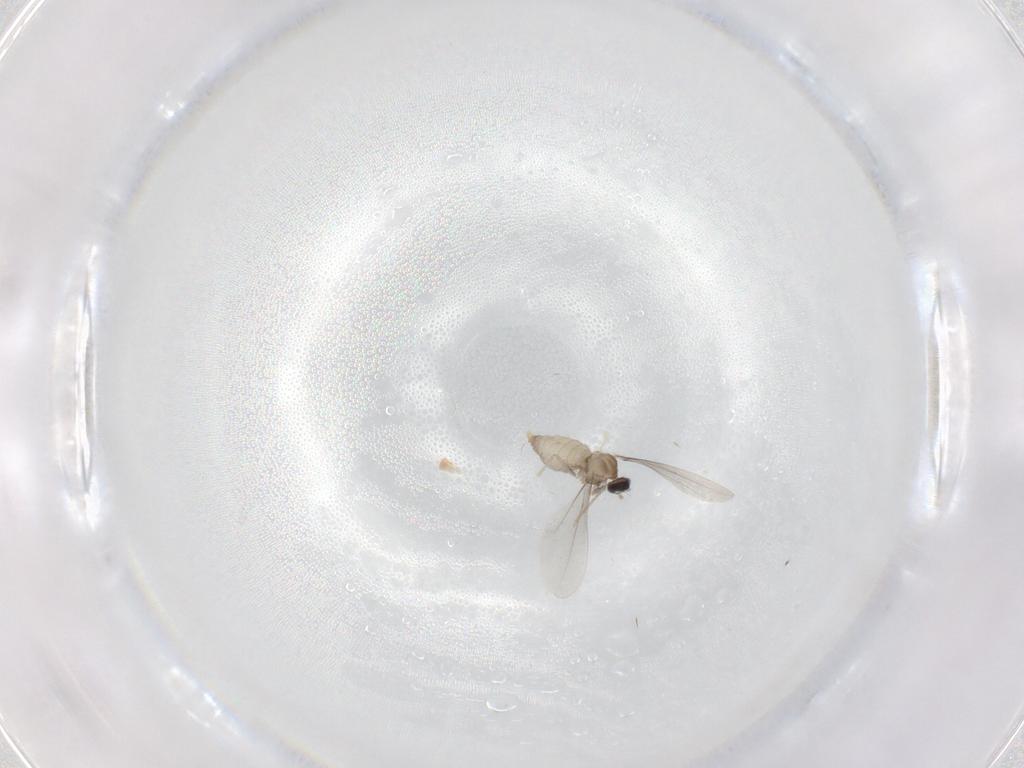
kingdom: Animalia
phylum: Arthropoda
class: Insecta
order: Diptera
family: Cecidomyiidae
